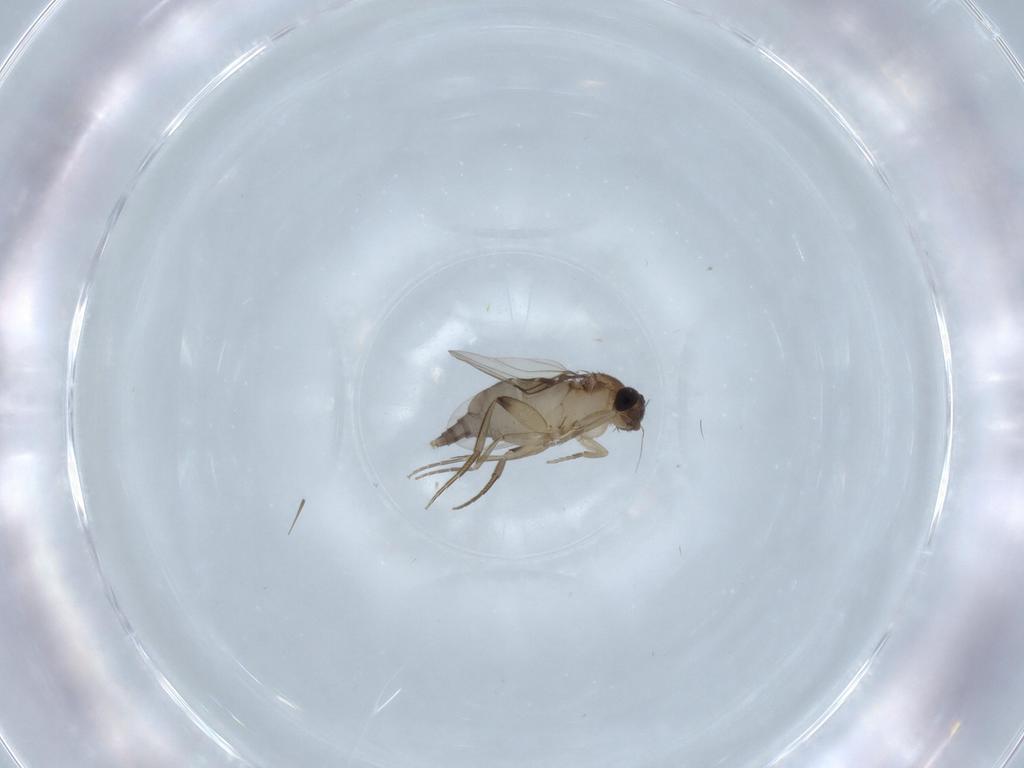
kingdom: Animalia
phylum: Arthropoda
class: Insecta
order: Diptera
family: Phoridae
